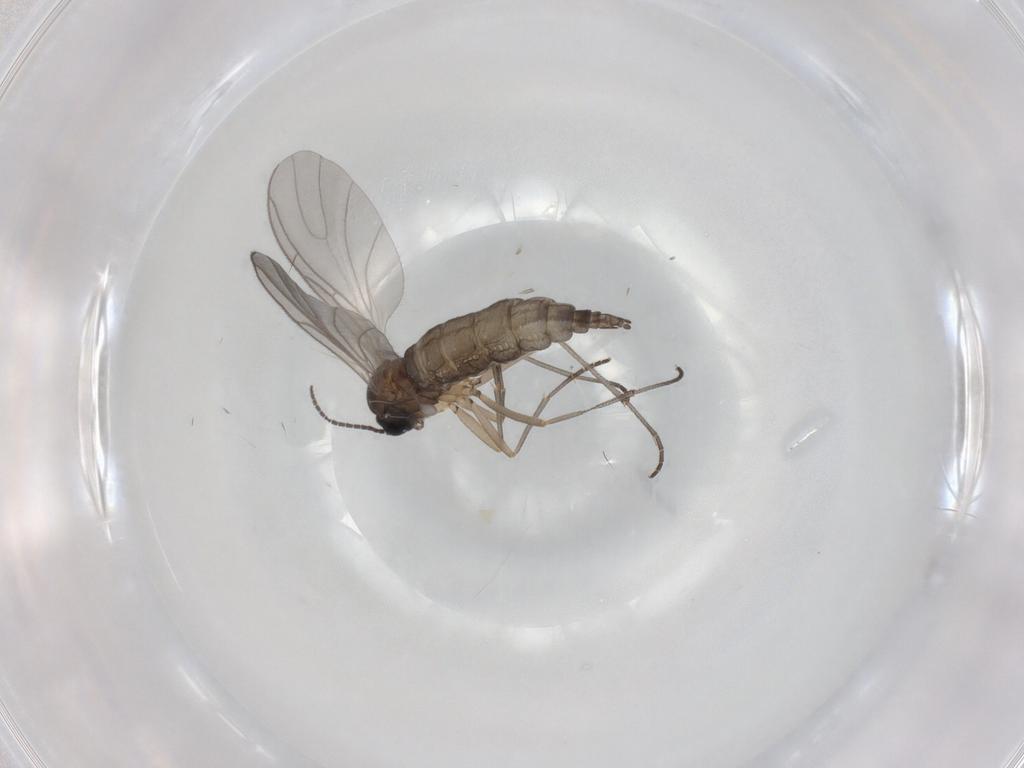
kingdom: Animalia
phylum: Arthropoda
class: Insecta
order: Diptera
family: Sciaridae
